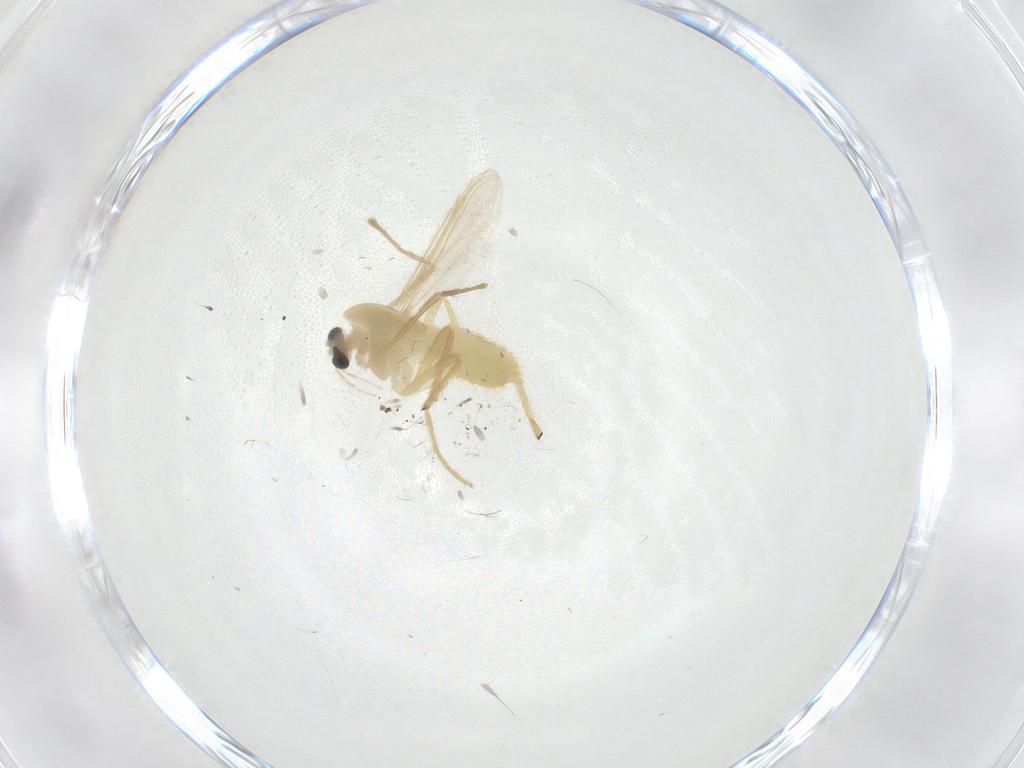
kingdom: Animalia
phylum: Arthropoda
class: Insecta
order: Diptera
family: Chironomidae
